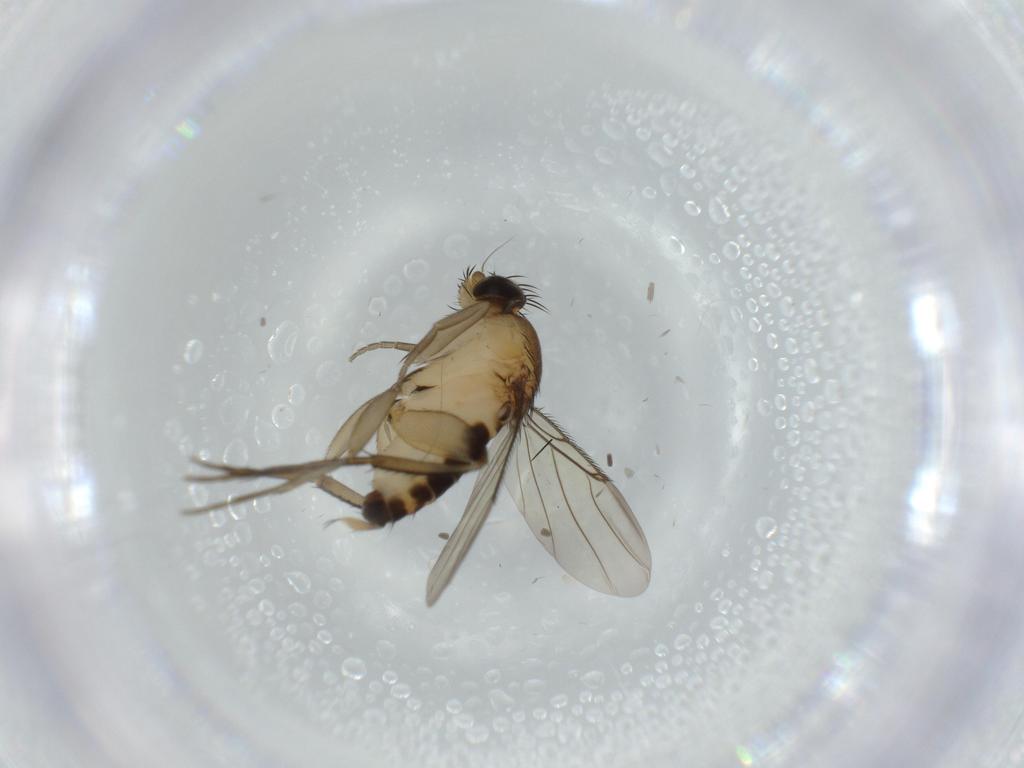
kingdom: Animalia
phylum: Arthropoda
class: Insecta
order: Diptera
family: Phoridae
